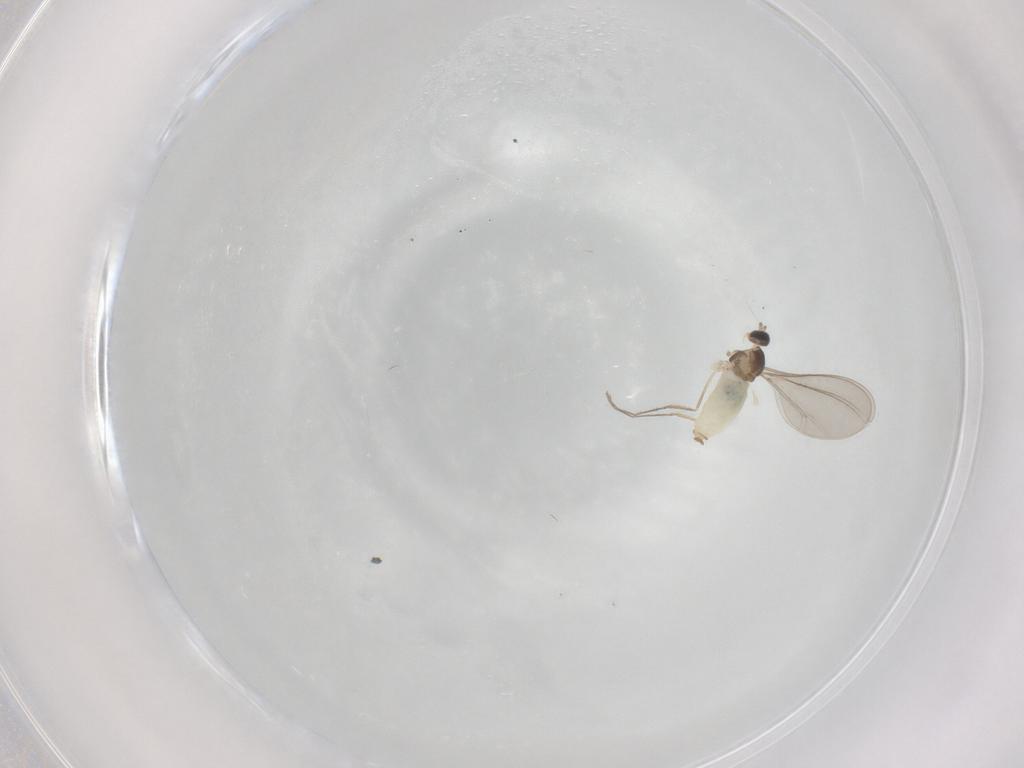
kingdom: Animalia
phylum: Arthropoda
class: Insecta
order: Diptera
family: Cecidomyiidae
